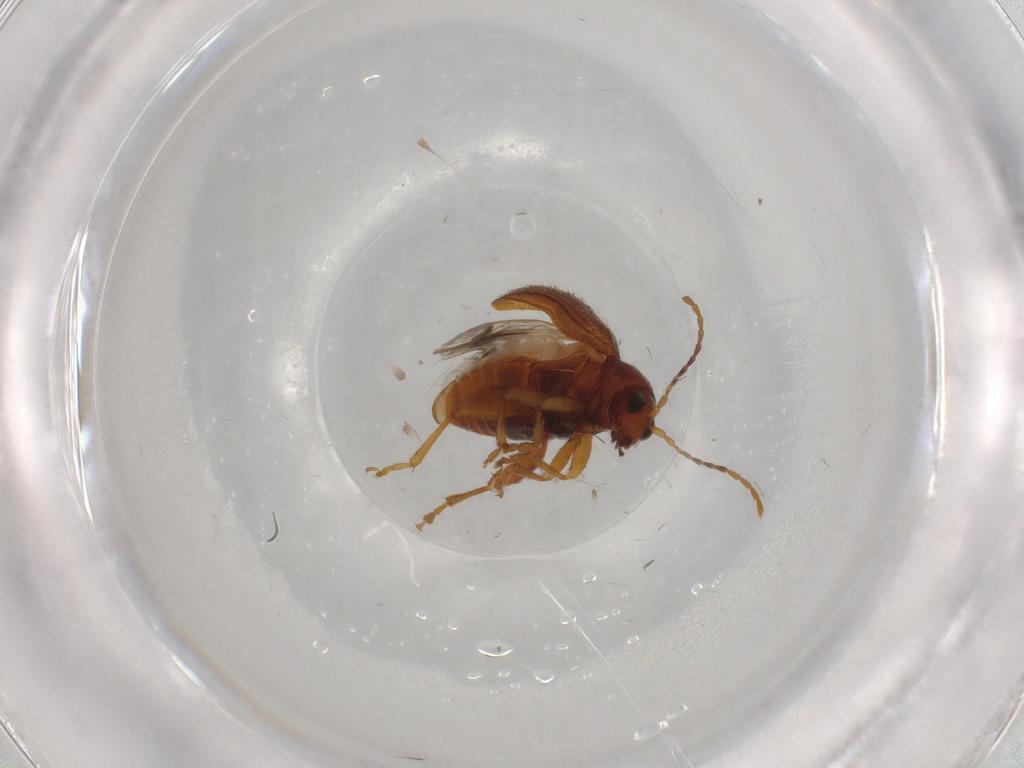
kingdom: Animalia
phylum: Arthropoda
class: Insecta
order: Coleoptera
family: Chrysomelidae
